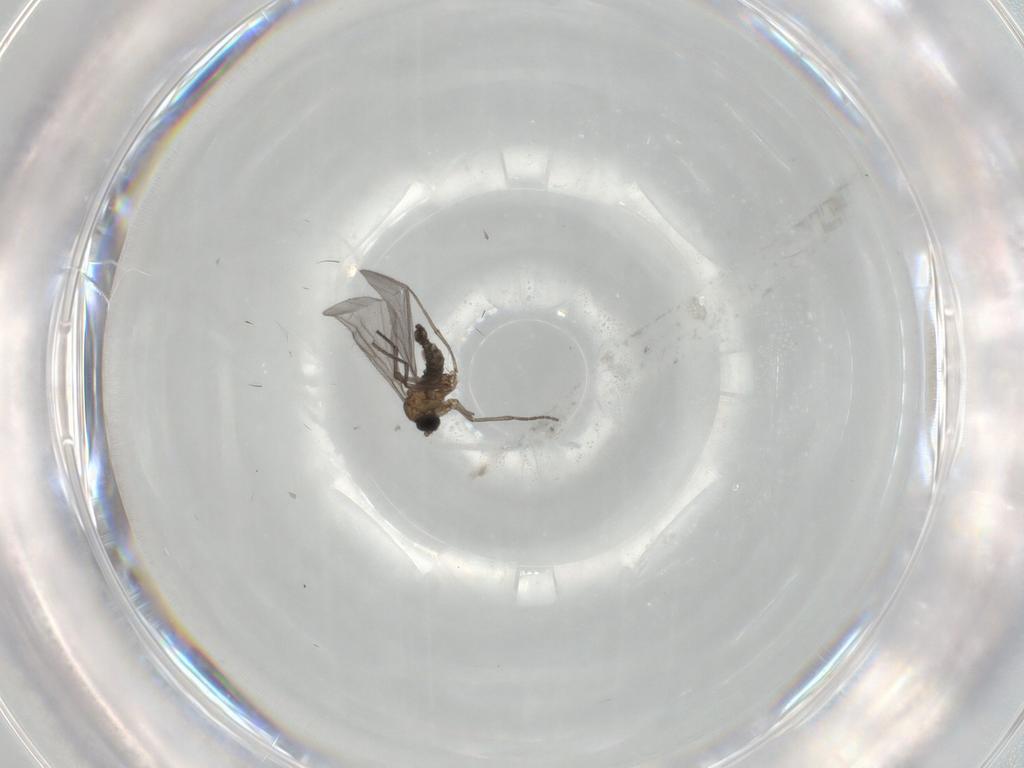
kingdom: Animalia
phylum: Arthropoda
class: Insecta
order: Diptera
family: Sciaridae
